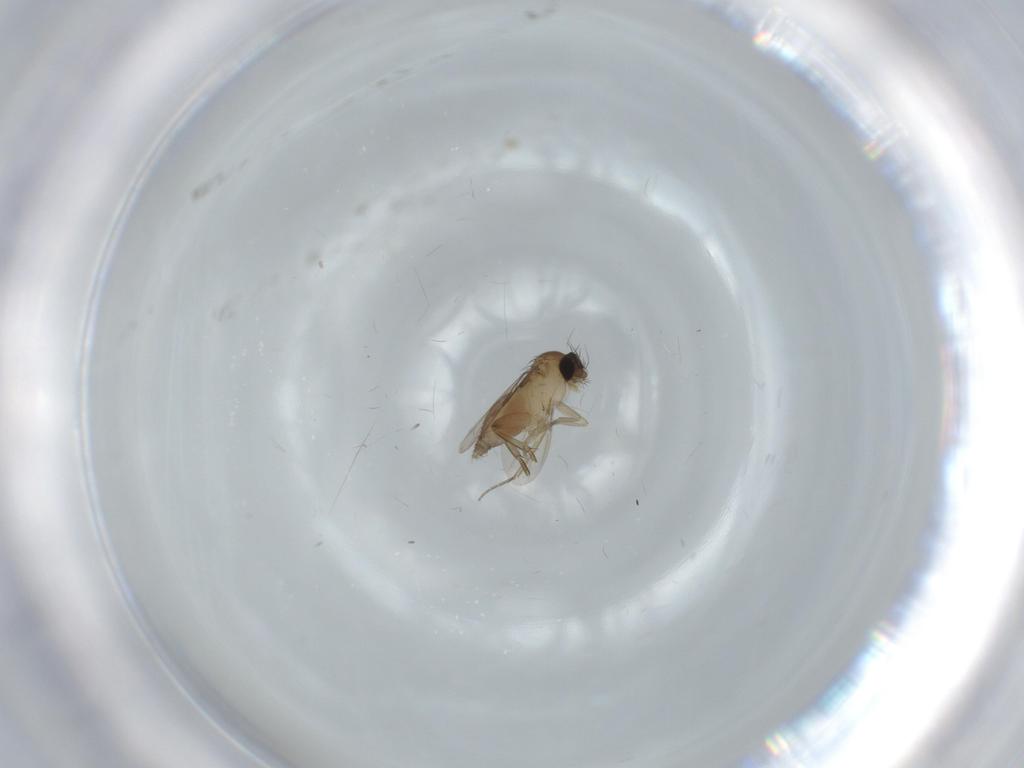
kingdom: Animalia
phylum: Arthropoda
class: Insecta
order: Diptera
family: Phoridae
